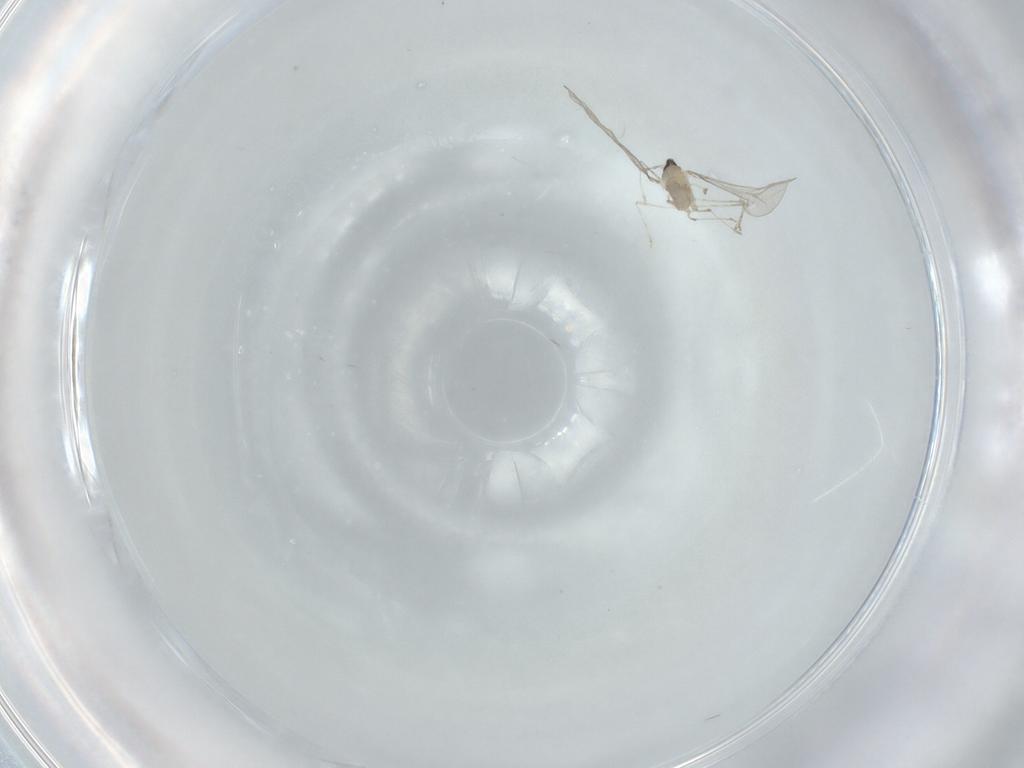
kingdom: Animalia
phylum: Arthropoda
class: Insecta
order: Diptera
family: Cecidomyiidae
